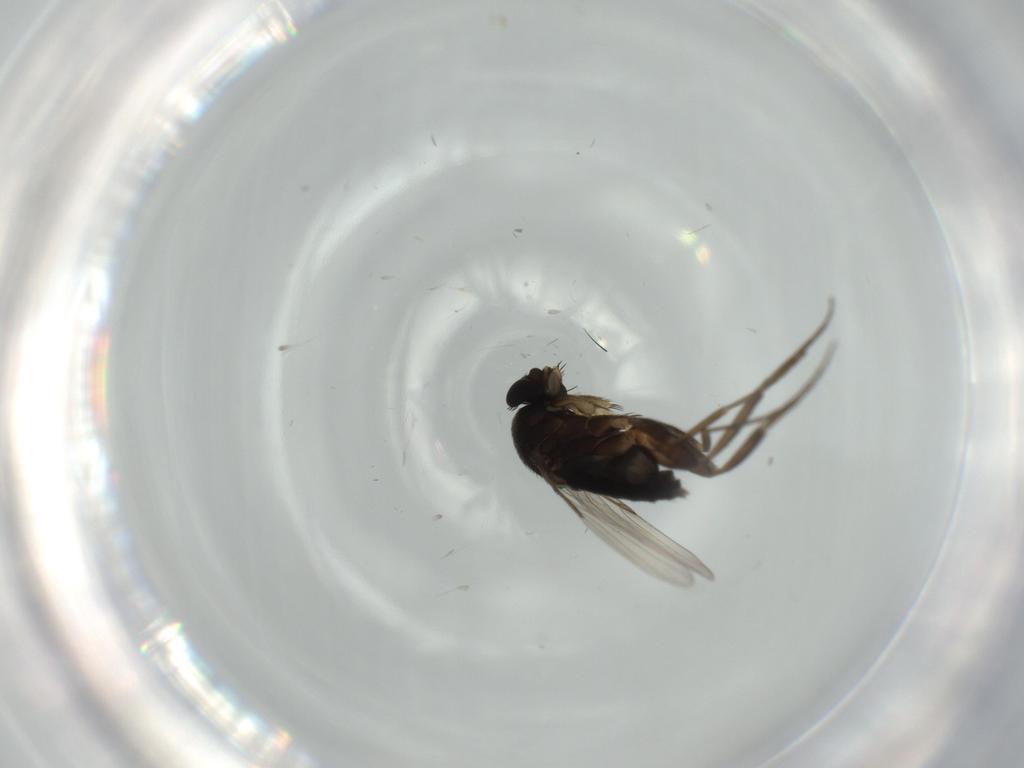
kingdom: Animalia
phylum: Arthropoda
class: Insecta
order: Diptera
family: Phoridae
